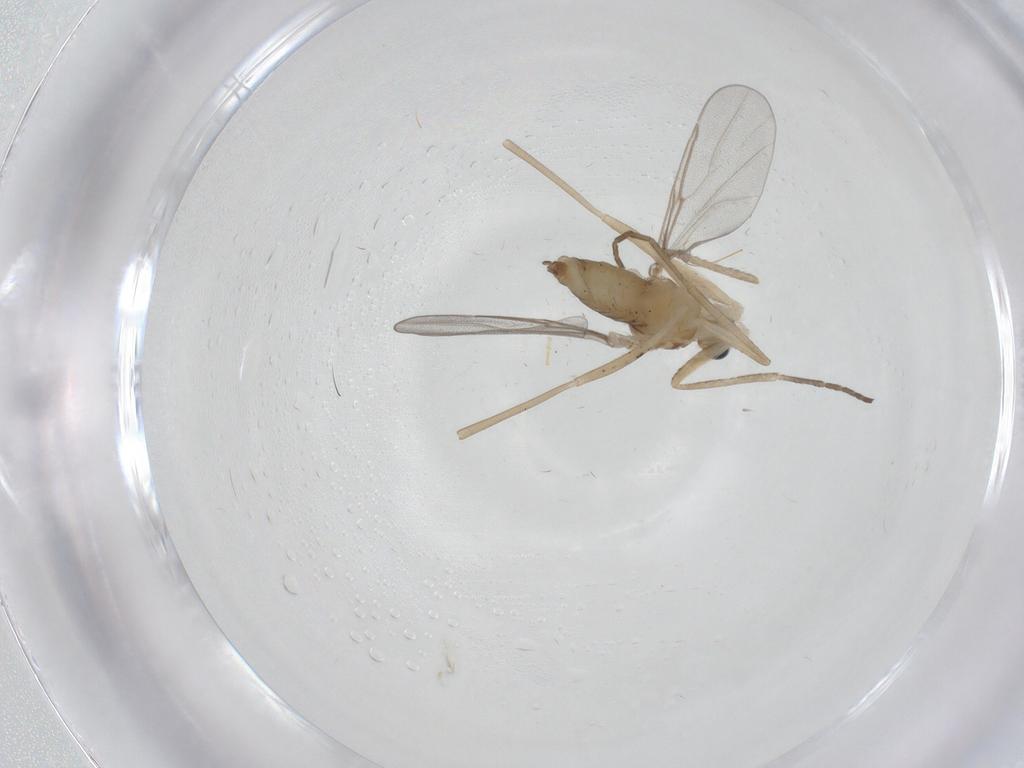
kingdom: Animalia
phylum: Arthropoda
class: Insecta
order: Diptera
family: Cecidomyiidae
